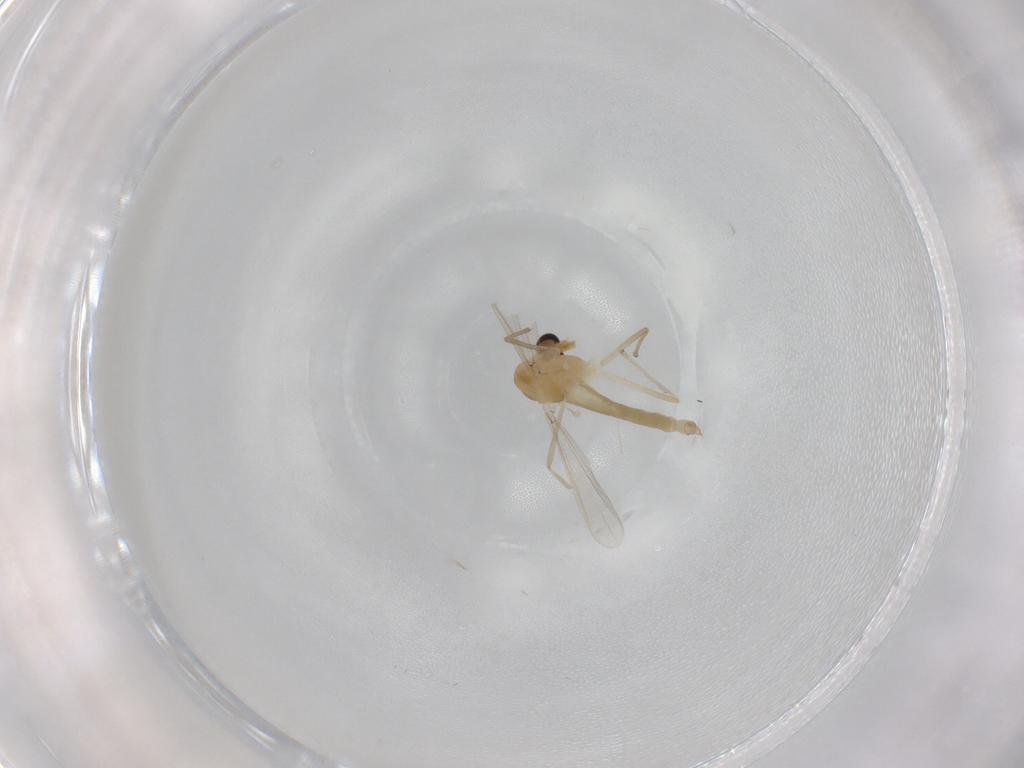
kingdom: Animalia
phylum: Arthropoda
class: Insecta
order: Diptera
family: Chironomidae
